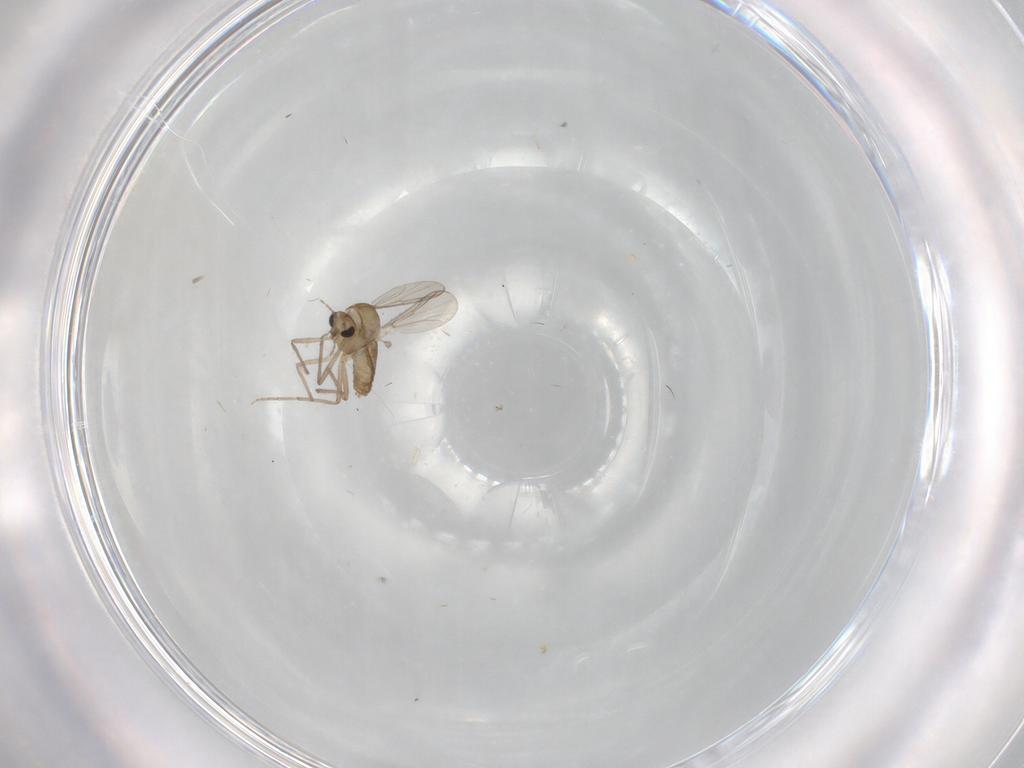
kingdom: Animalia
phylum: Arthropoda
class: Insecta
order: Diptera
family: Chironomidae
